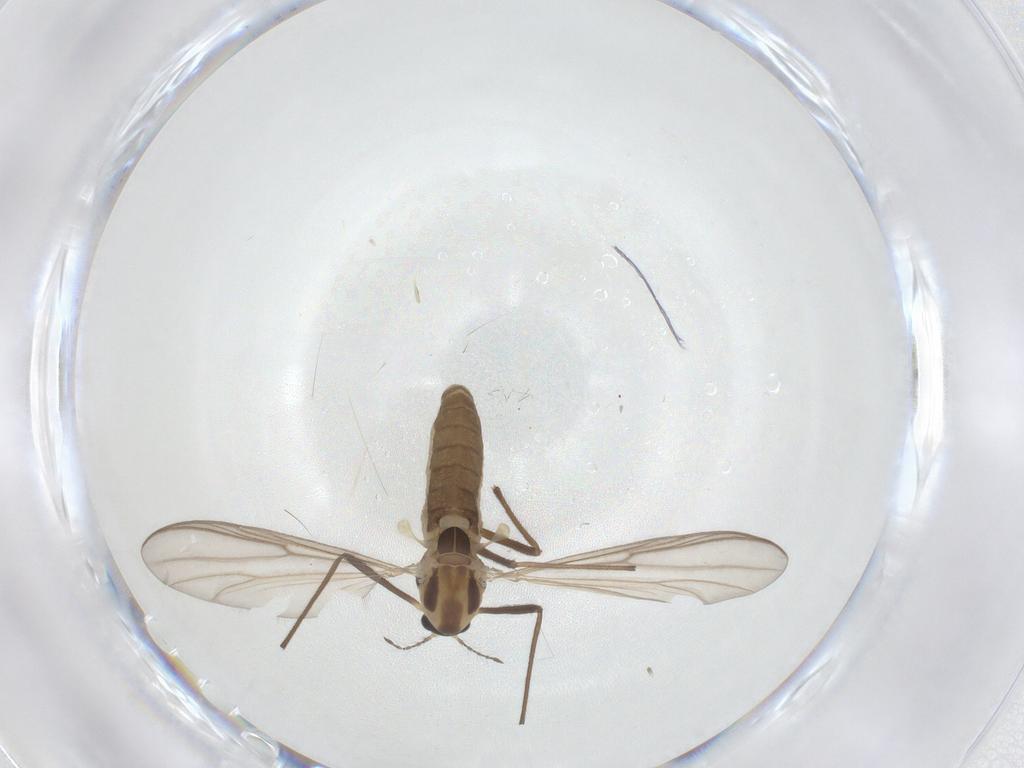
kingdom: Animalia
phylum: Arthropoda
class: Insecta
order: Diptera
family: Chironomidae
